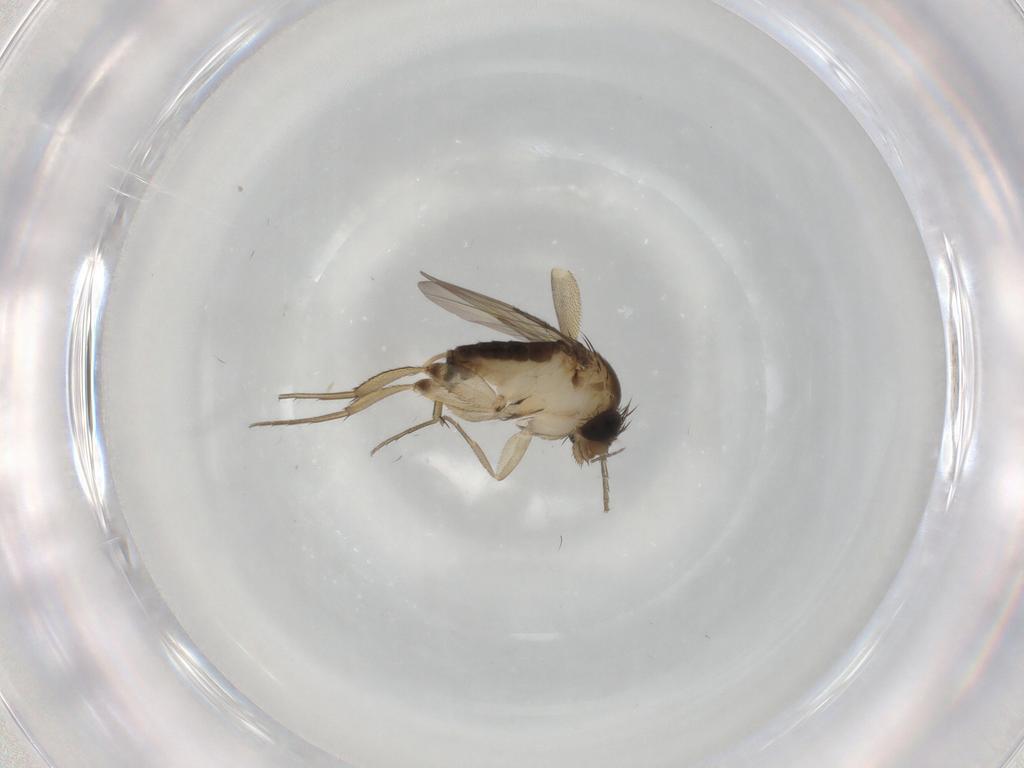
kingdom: Animalia
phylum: Arthropoda
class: Insecta
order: Diptera
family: Phoridae
